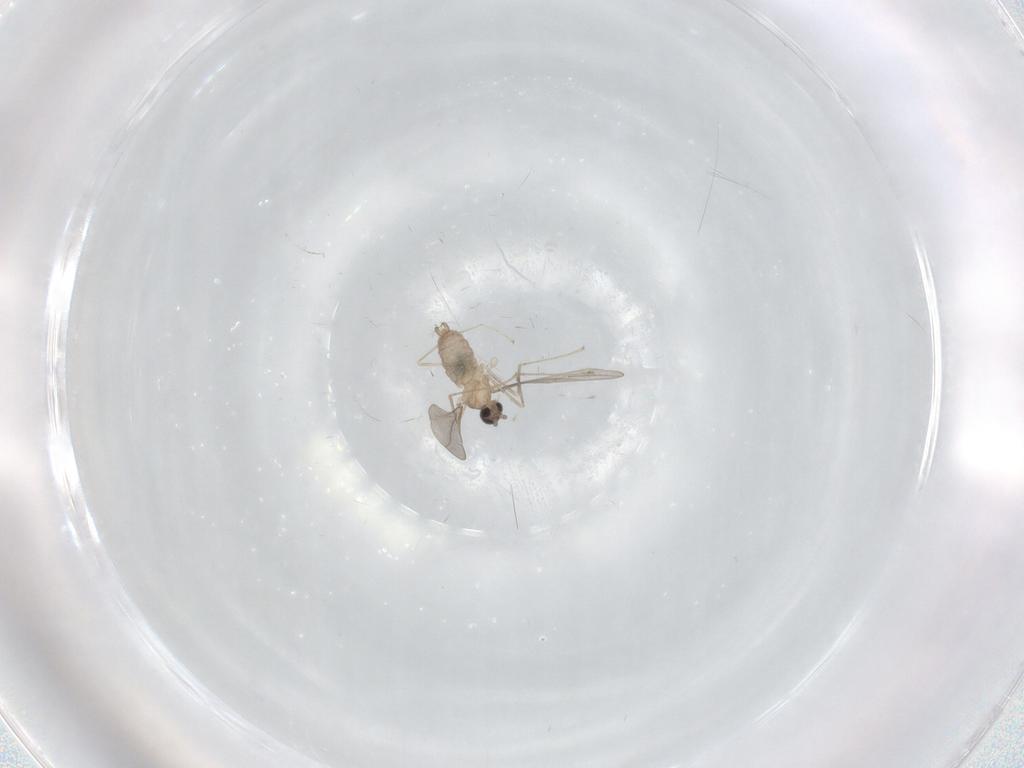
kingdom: Animalia
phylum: Arthropoda
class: Insecta
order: Diptera
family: Cecidomyiidae
